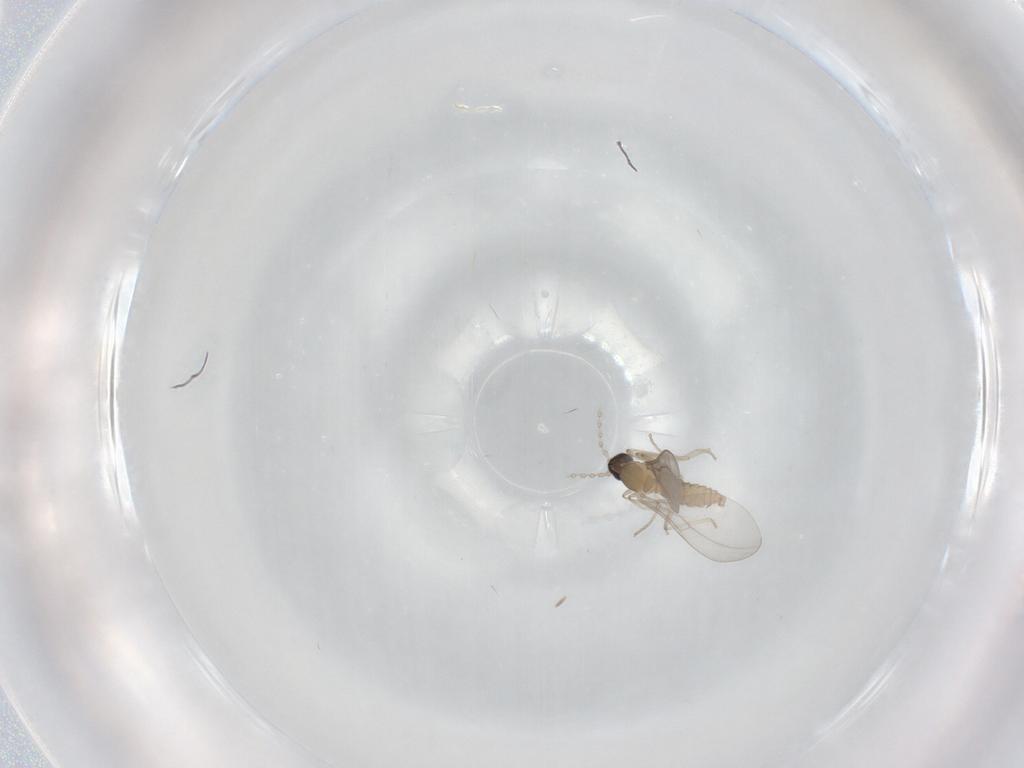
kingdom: Animalia
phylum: Arthropoda
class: Insecta
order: Diptera
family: Cecidomyiidae
